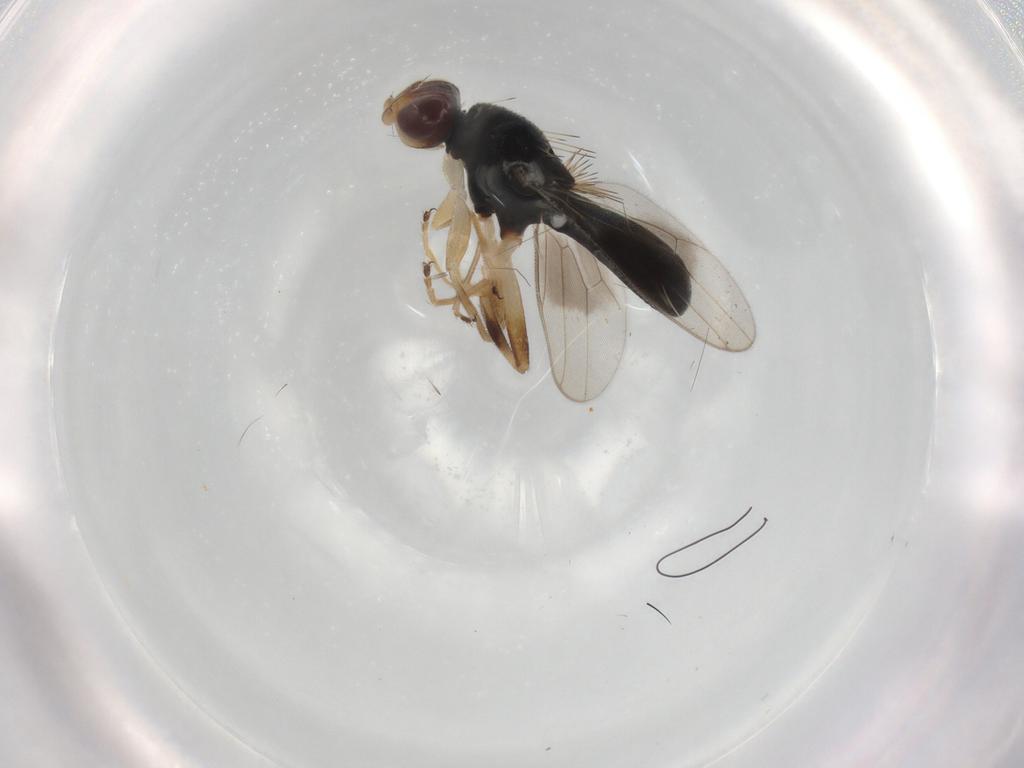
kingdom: Animalia
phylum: Arthropoda
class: Insecta
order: Diptera
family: Chloropidae
